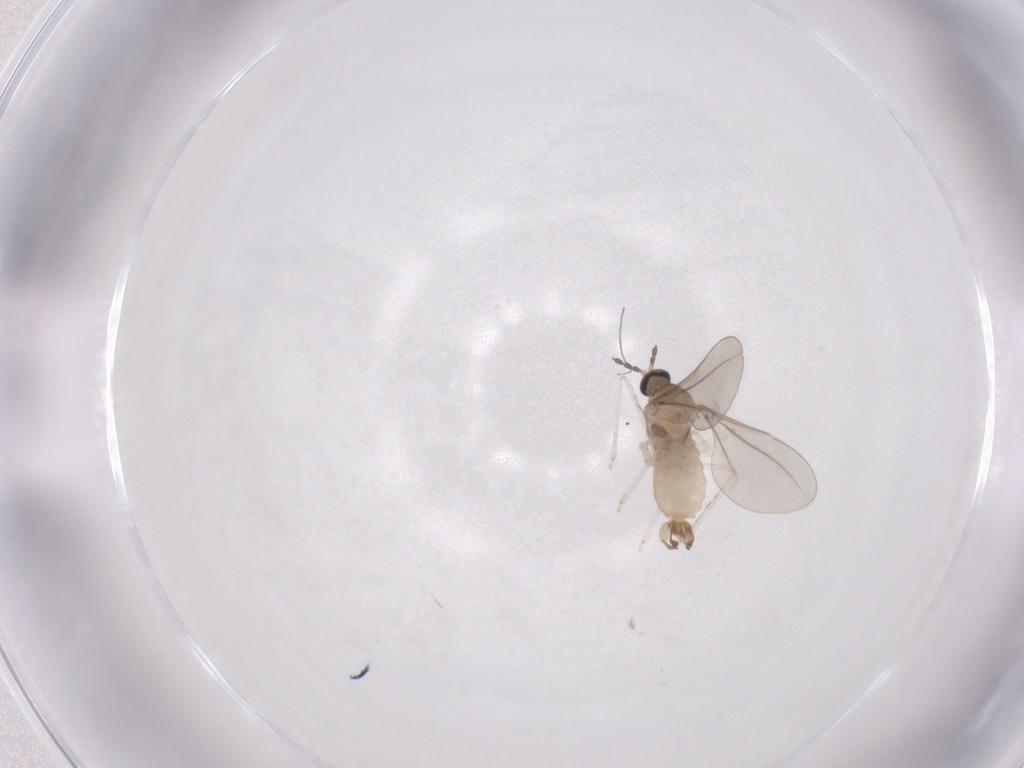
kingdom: Animalia
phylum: Arthropoda
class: Insecta
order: Diptera
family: Cecidomyiidae
